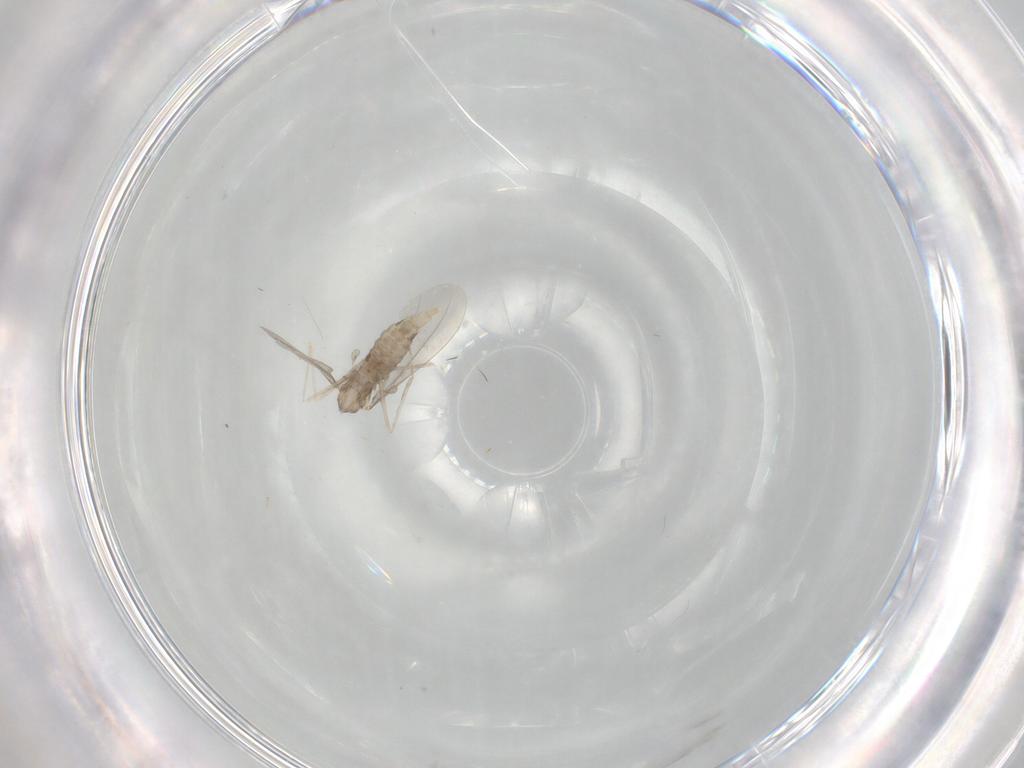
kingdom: Animalia
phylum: Arthropoda
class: Insecta
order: Diptera
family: Cecidomyiidae
